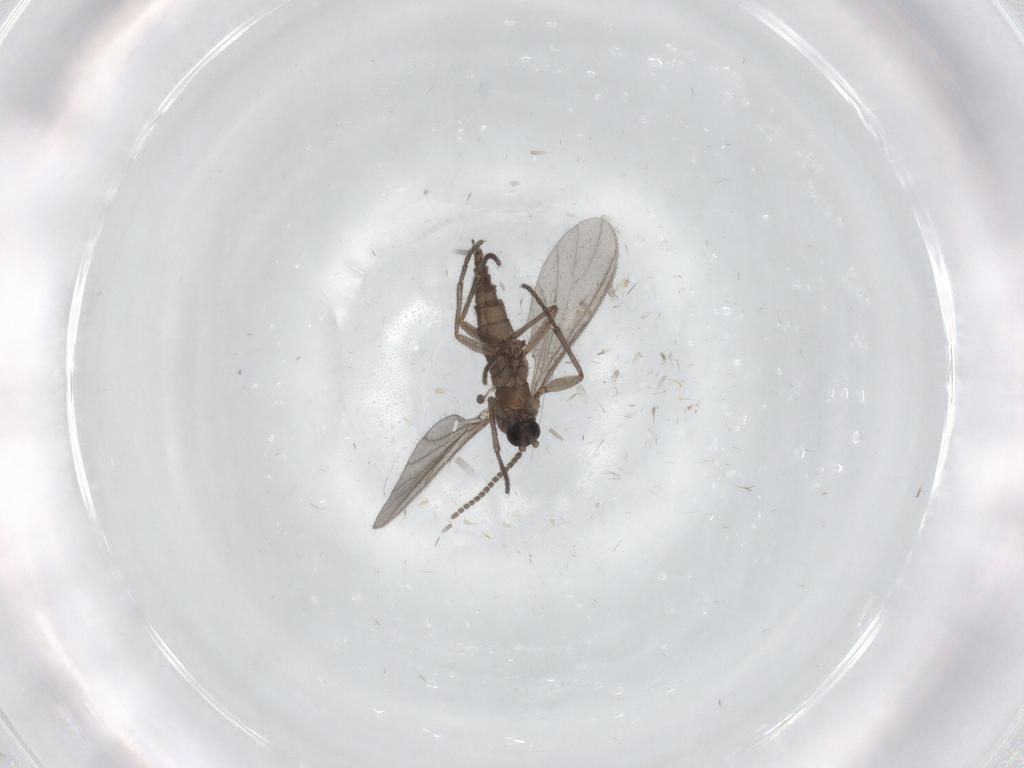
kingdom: Animalia
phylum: Arthropoda
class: Insecta
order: Diptera
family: Sciaridae
